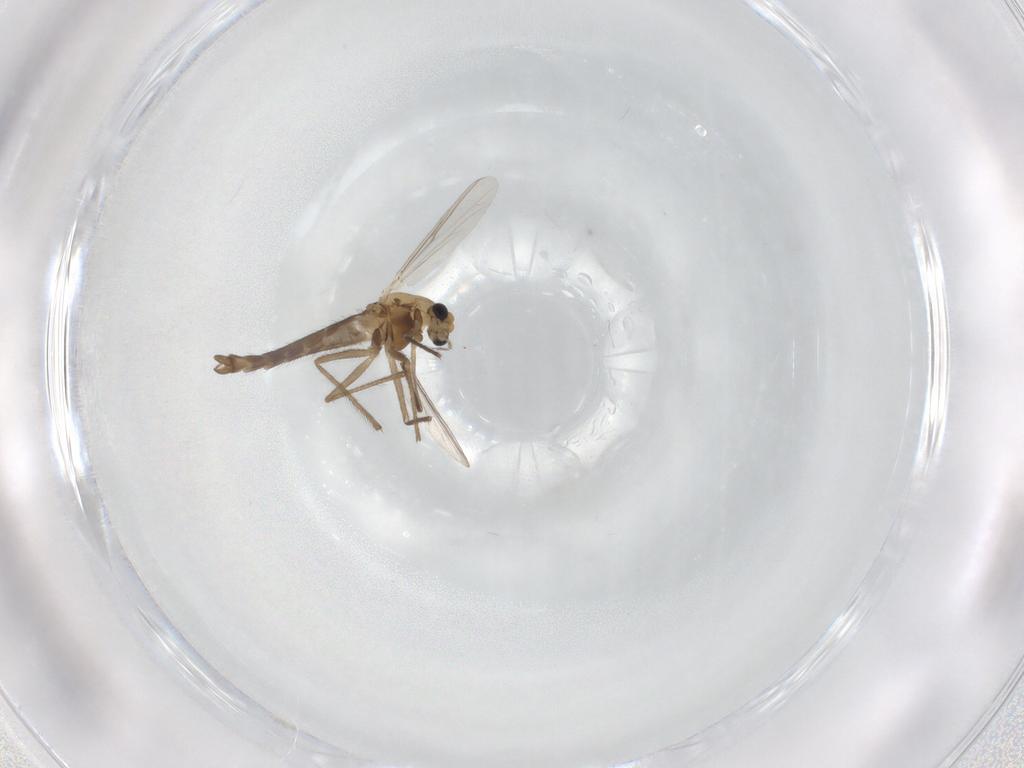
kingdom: Animalia
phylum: Arthropoda
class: Insecta
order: Diptera
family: Chironomidae
